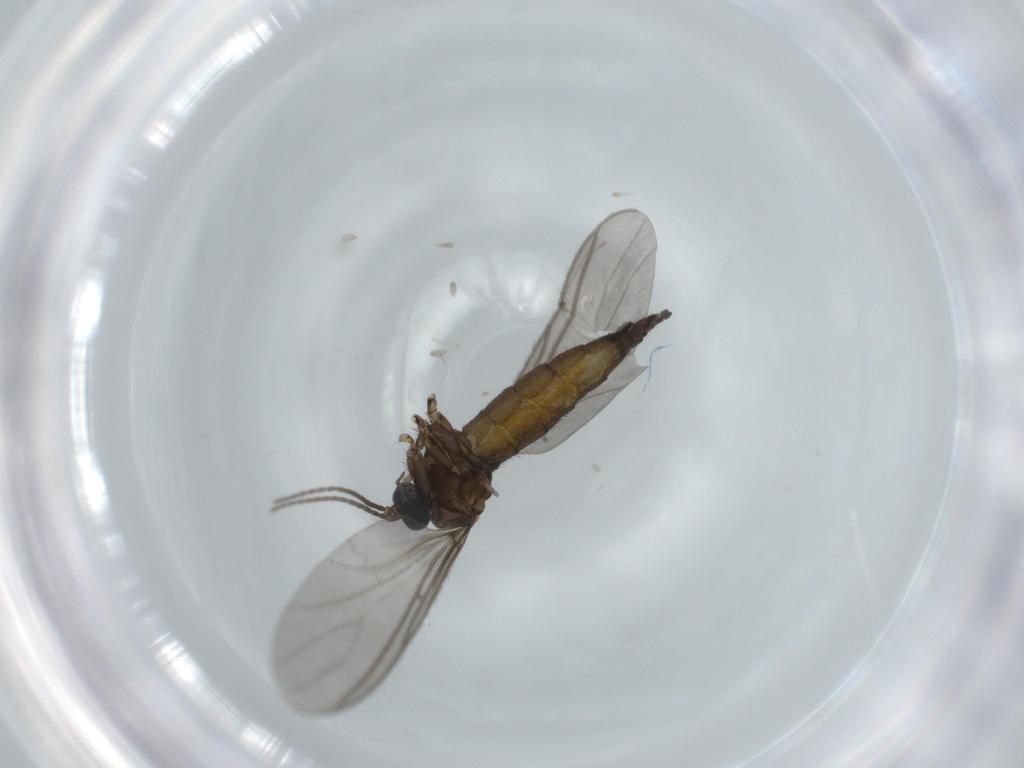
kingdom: Animalia
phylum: Arthropoda
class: Insecta
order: Diptera
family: Sciaridae
